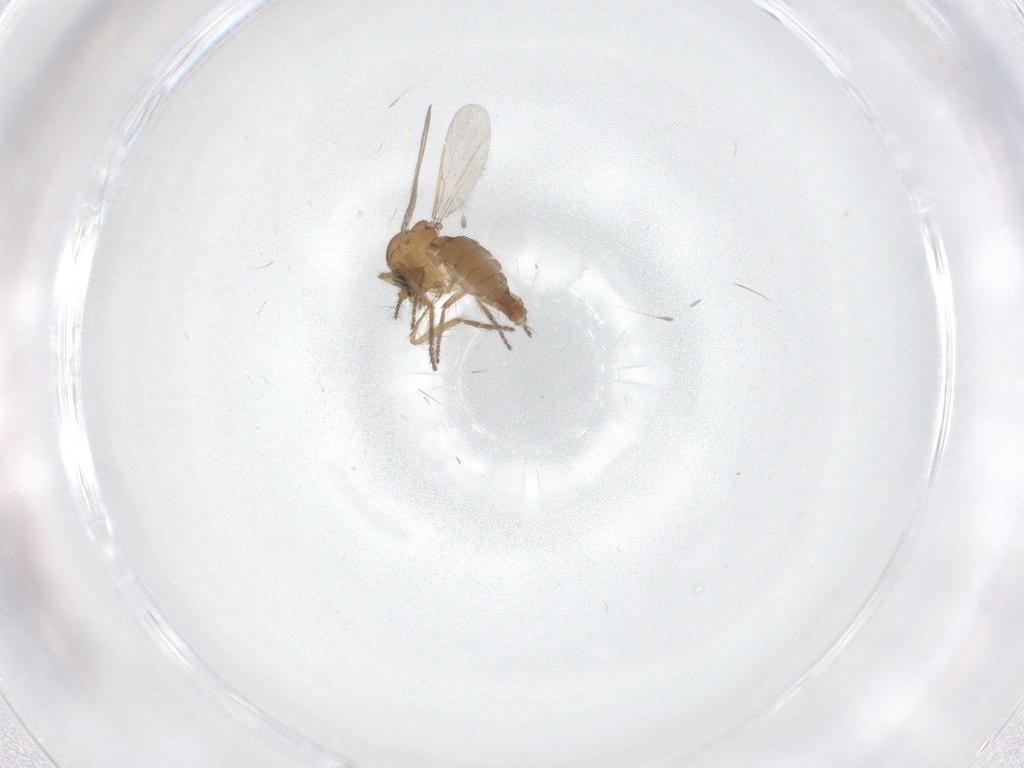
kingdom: Animalia
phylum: Arthropoda
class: Insecta
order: Diptera
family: Ceratopogonidae
